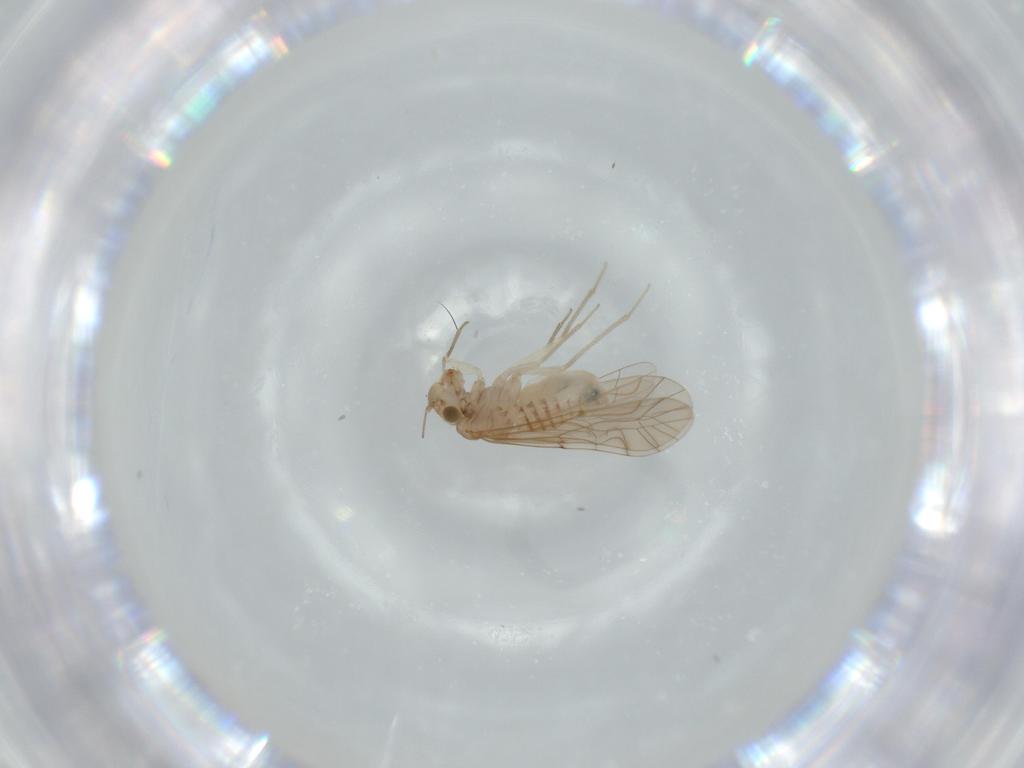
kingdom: Animalia
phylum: Arthropoda
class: Insecta
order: Psocodea
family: Lachesillidae
